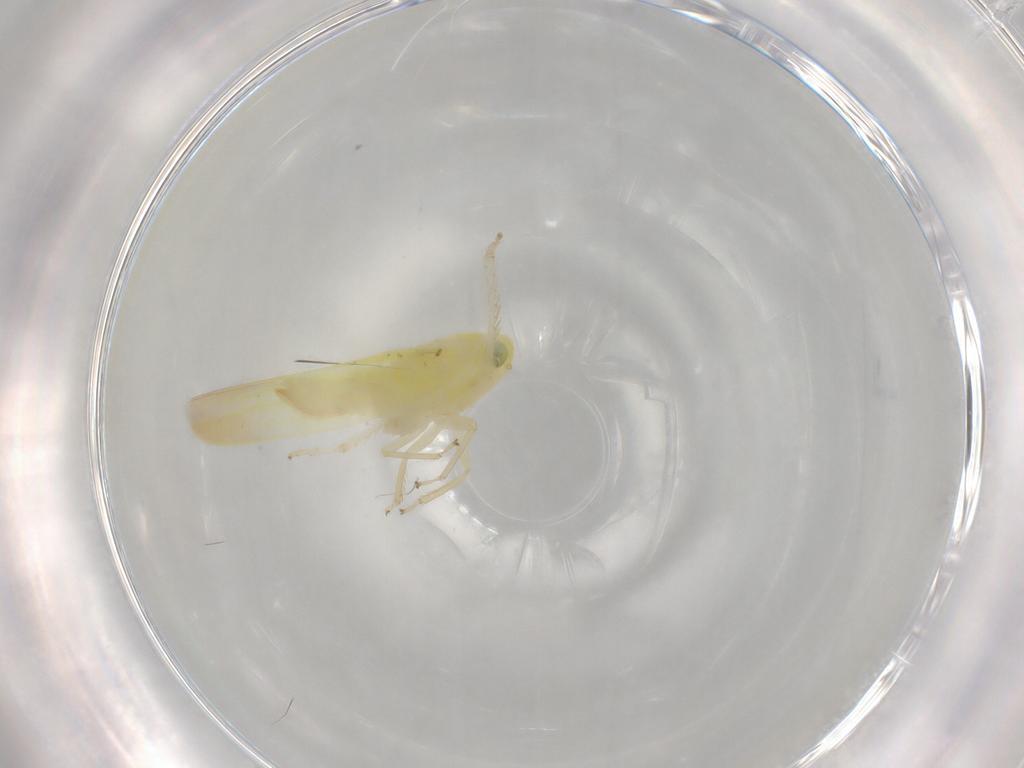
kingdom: Animalia
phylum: Arthropoda
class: Insecta
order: Hemiptera
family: Cicadellidae
